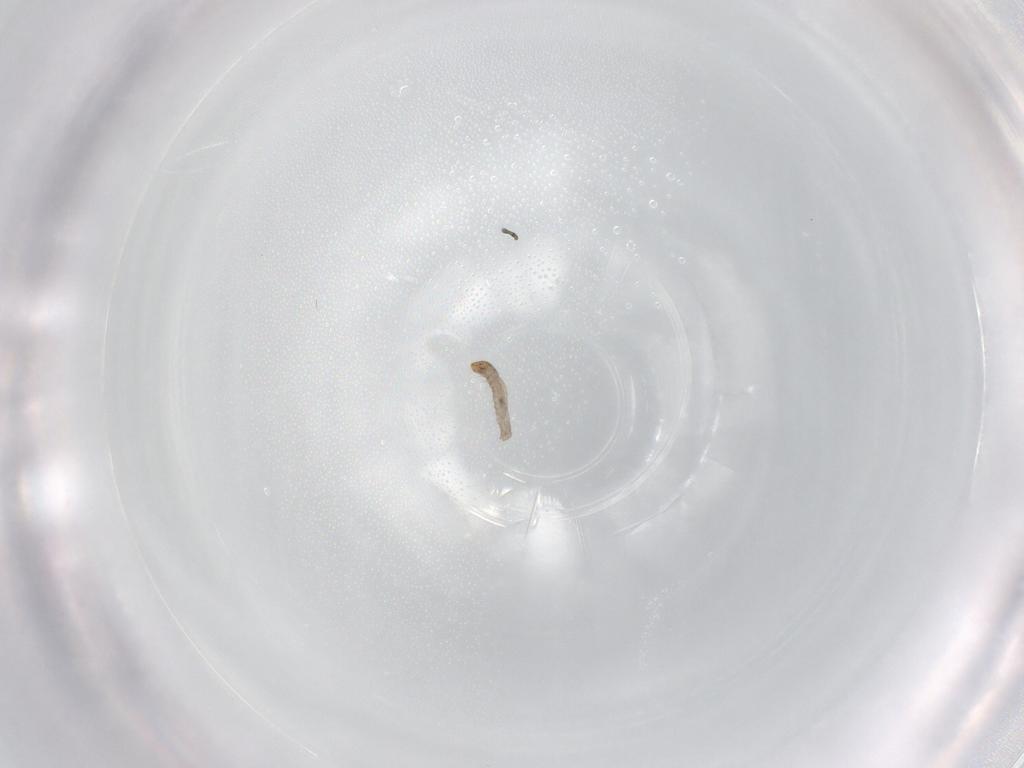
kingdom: Animalia
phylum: Arthropoda
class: Insecta
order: Lepidoptera
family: Tineidae
